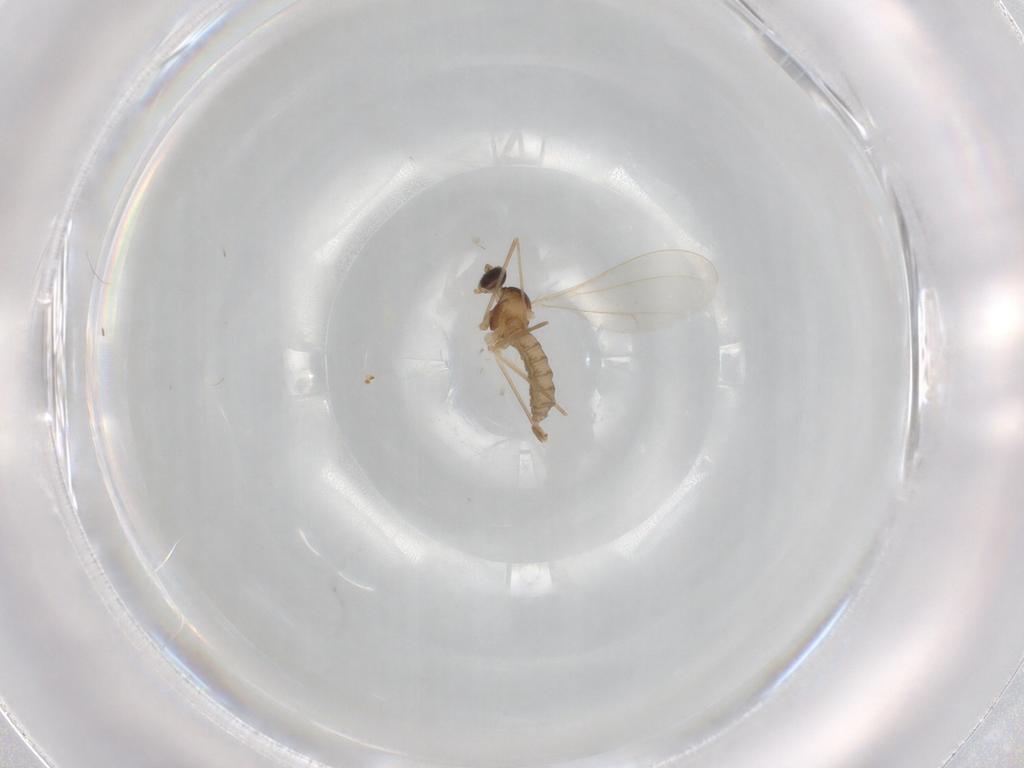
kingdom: Animalia
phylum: Arthropoda
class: Insecta
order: Diptera
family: Cecidomyiidae
